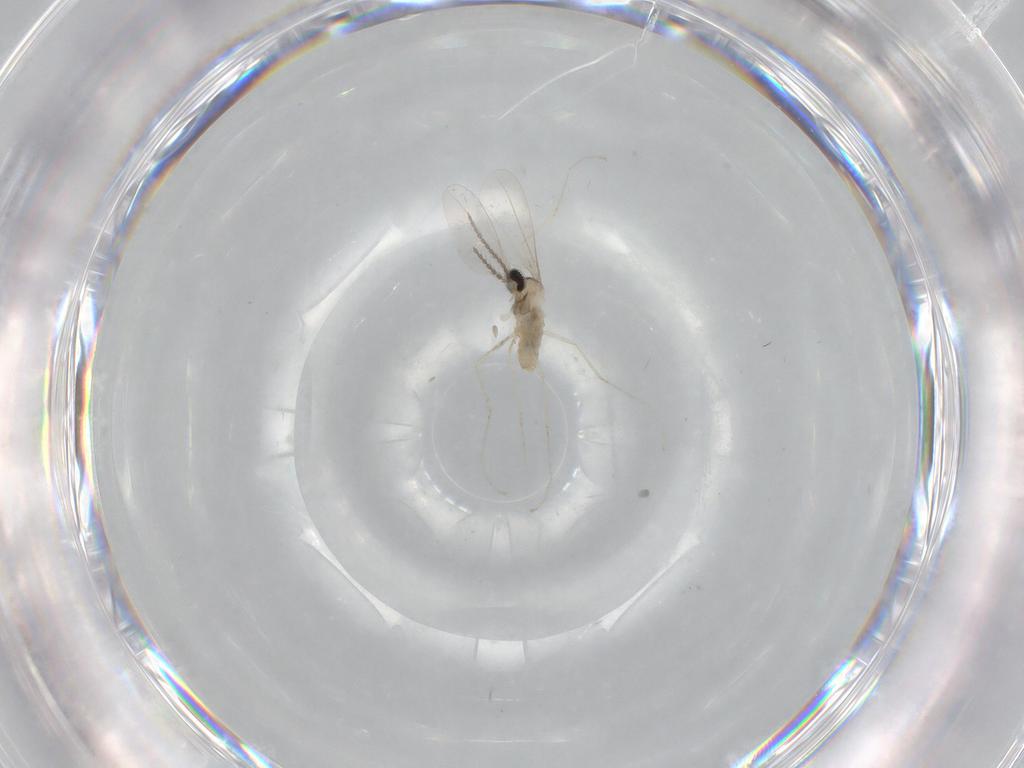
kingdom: Animalia
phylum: Arthropoda
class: Insecta
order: Diptera
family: Cecidomyiidae
